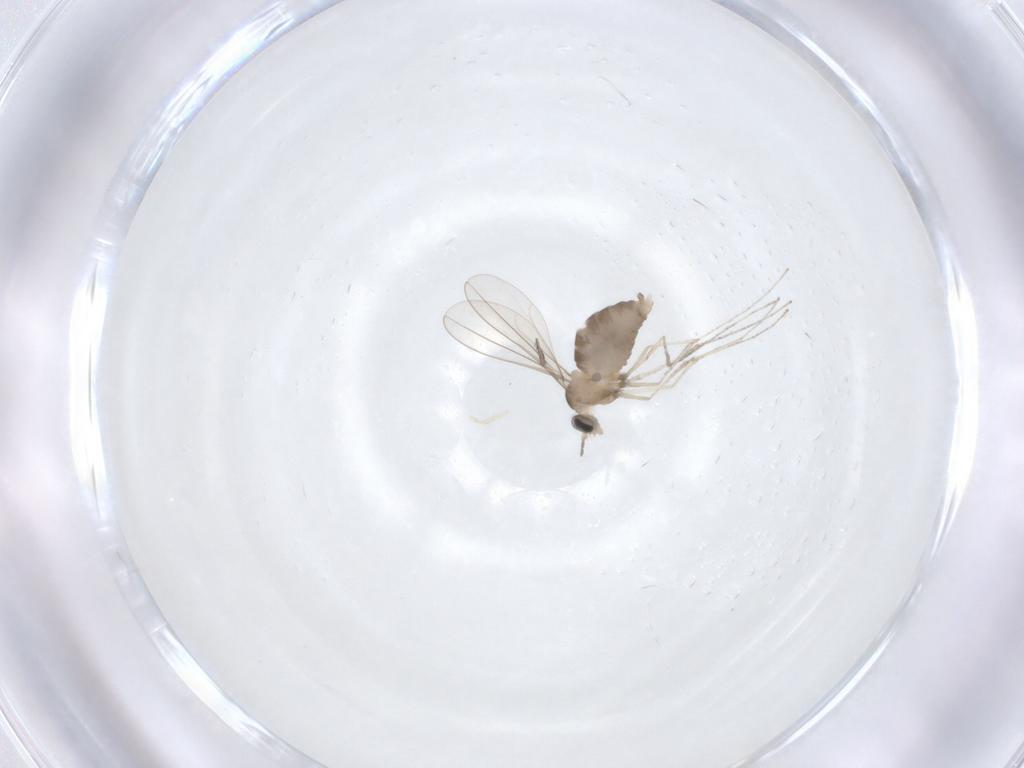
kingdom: Animalia
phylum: Arthropoda
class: Insecta
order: Diptera
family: Cecidomyiidae
